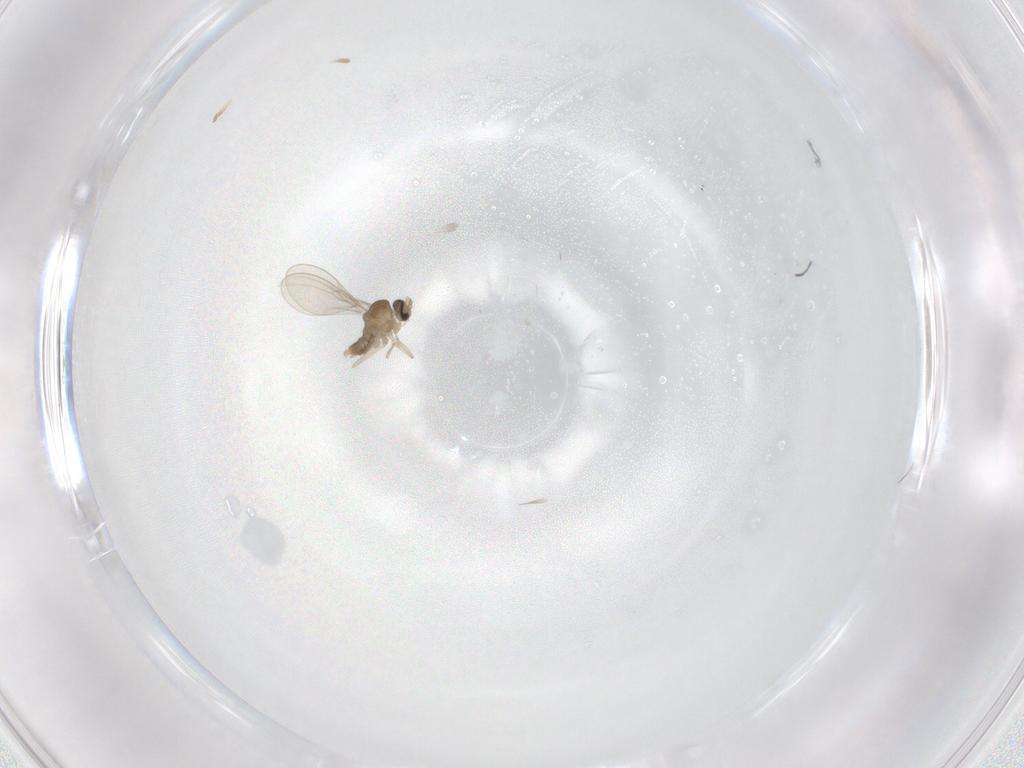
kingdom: Animalia
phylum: Arthropoda
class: Insecta
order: Diptera
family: Cecidomyiidae
